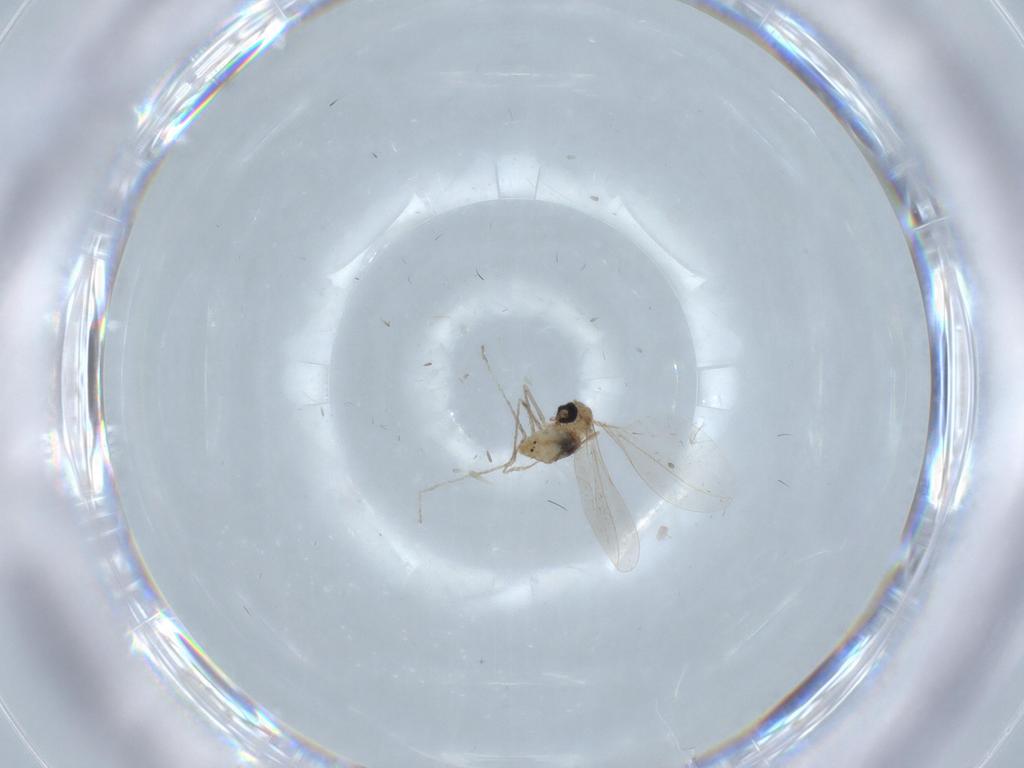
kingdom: Animalia
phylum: Arthropoda
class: Insecta
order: Diptera
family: Cecidomyiidae
